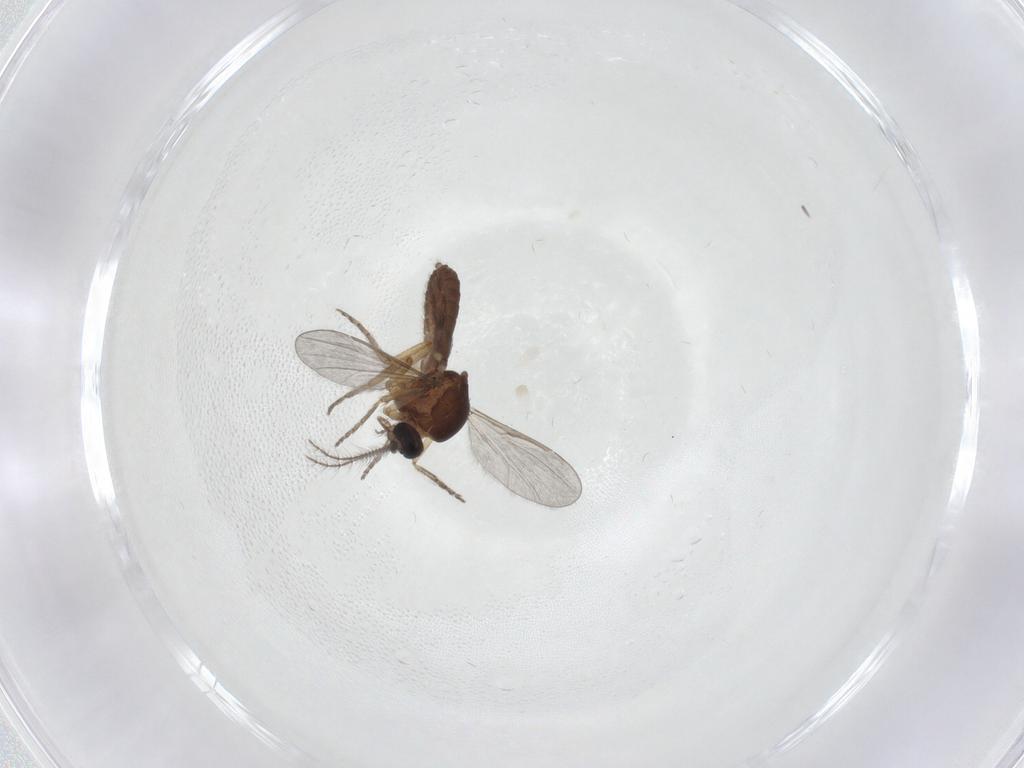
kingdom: Animalia
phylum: Arthropoda
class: Insecta
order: Diptera
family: Ceratopogonidae
